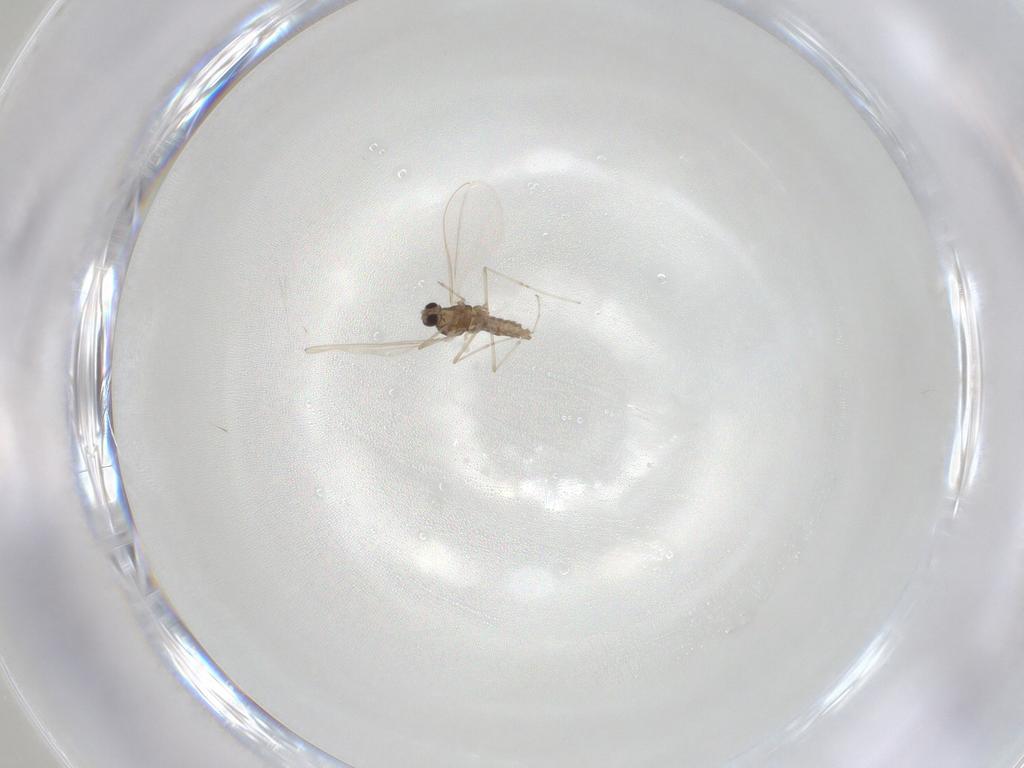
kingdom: Animalia
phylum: Arthropoda
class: Insecta
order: Diptera
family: Cecidomyiidae
